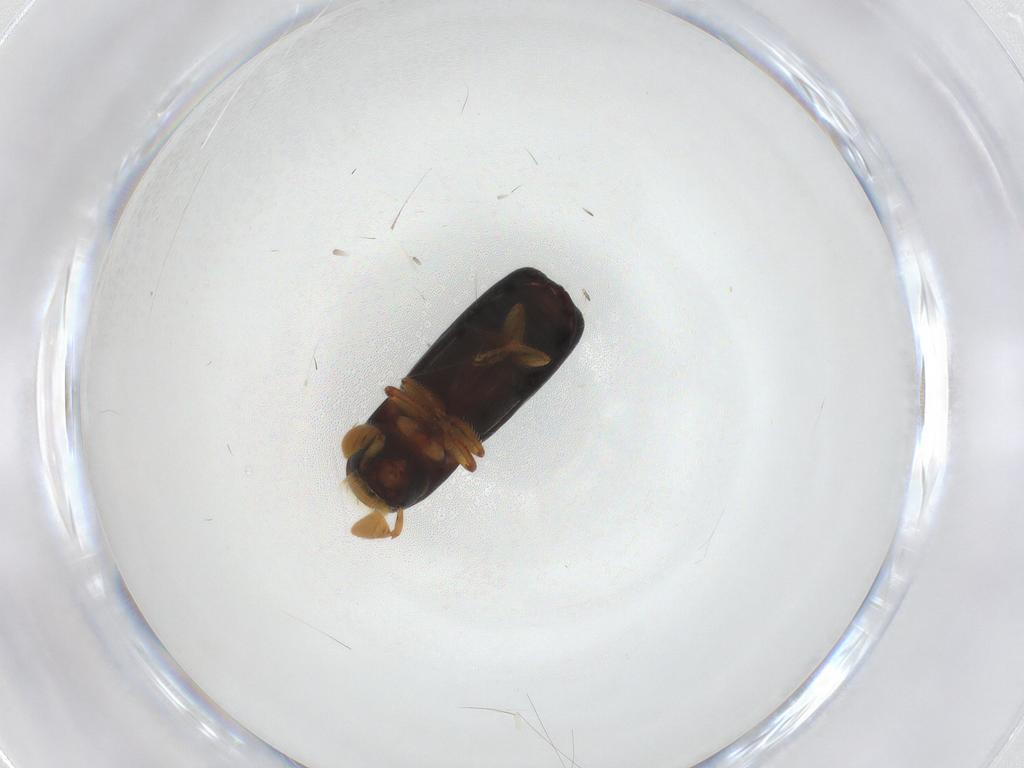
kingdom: Animalia
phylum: Arthropoda
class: Insecta
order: Coleoptera
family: Curculionidae
